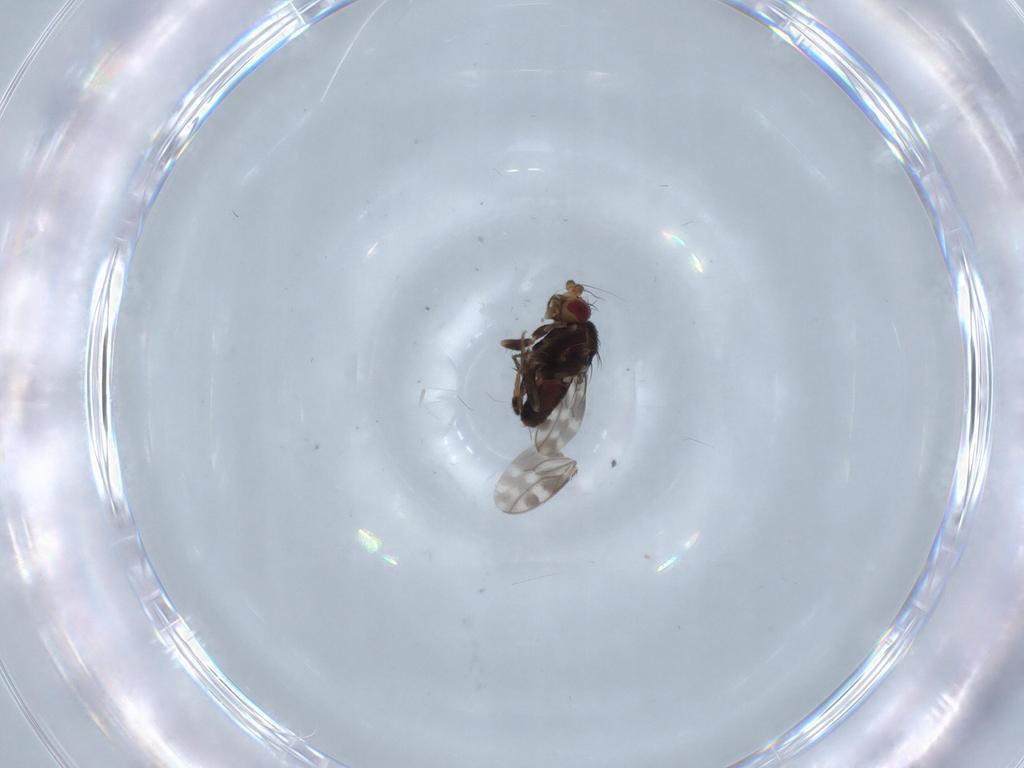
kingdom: Animalia
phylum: Arthropoda
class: Insecta
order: Diptera
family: Sphaeroceridae
